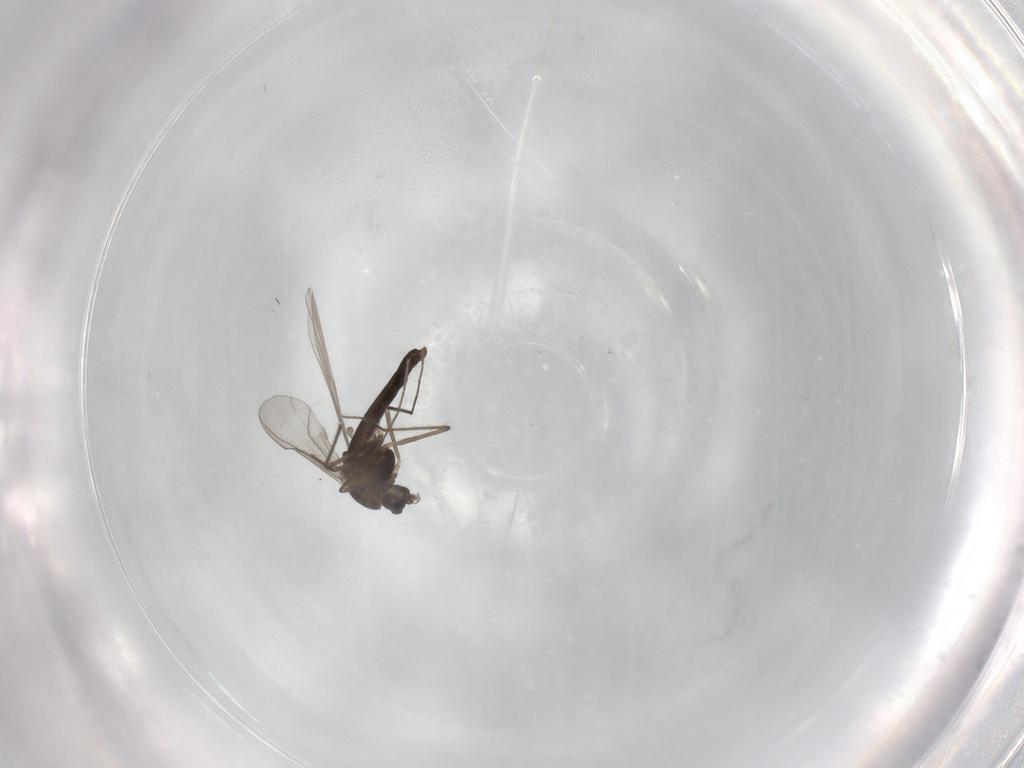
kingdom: Animalia
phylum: Arthropoda
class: Insecta
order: Diptera
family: Chironomidae
